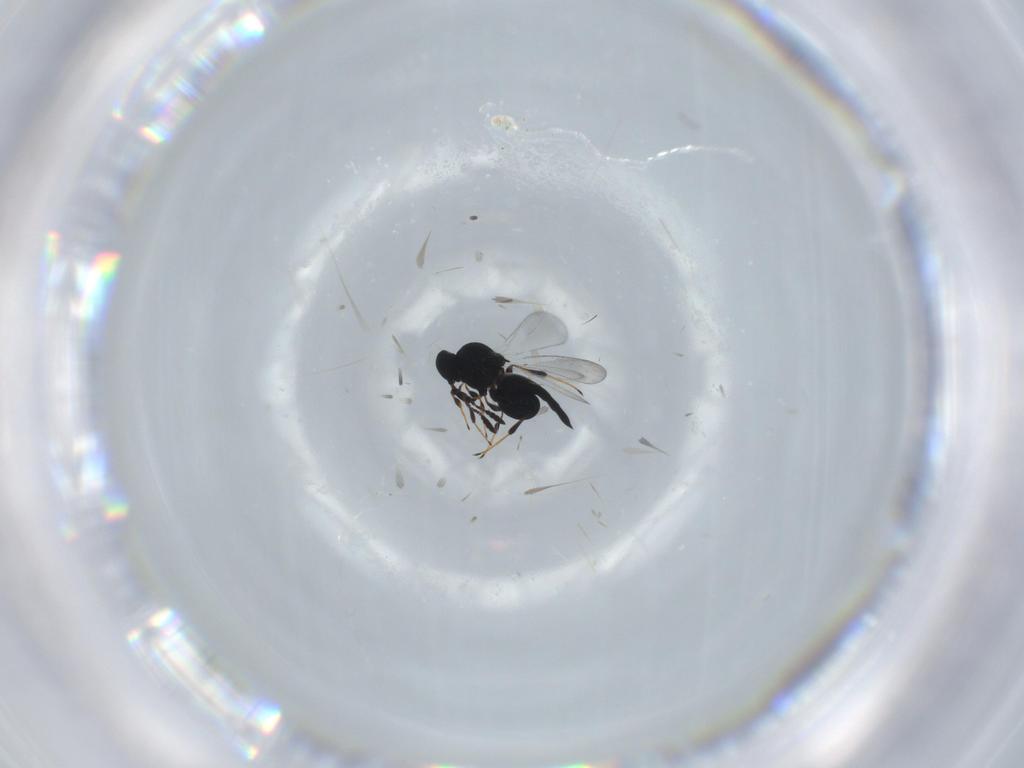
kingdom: Animalia
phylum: Arthropoda
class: Insecta
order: Hymenoptera
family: Platygastridae
